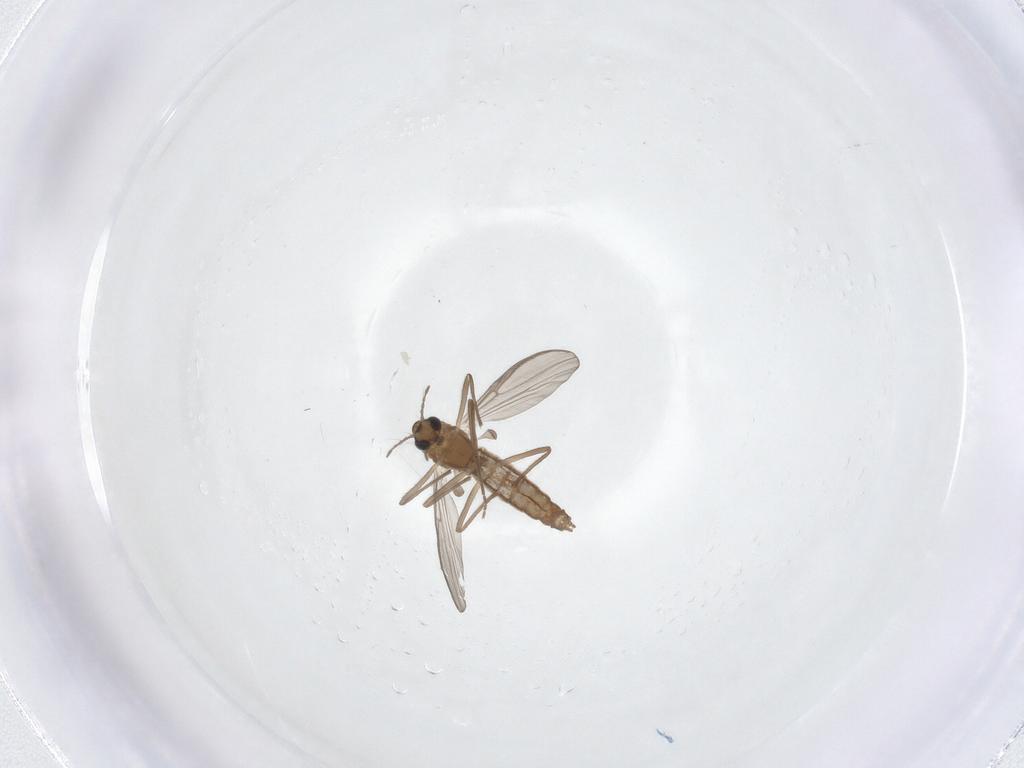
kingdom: Animalia
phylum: Arthropoda
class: Insecta
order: Diptera
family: Chironomidae
